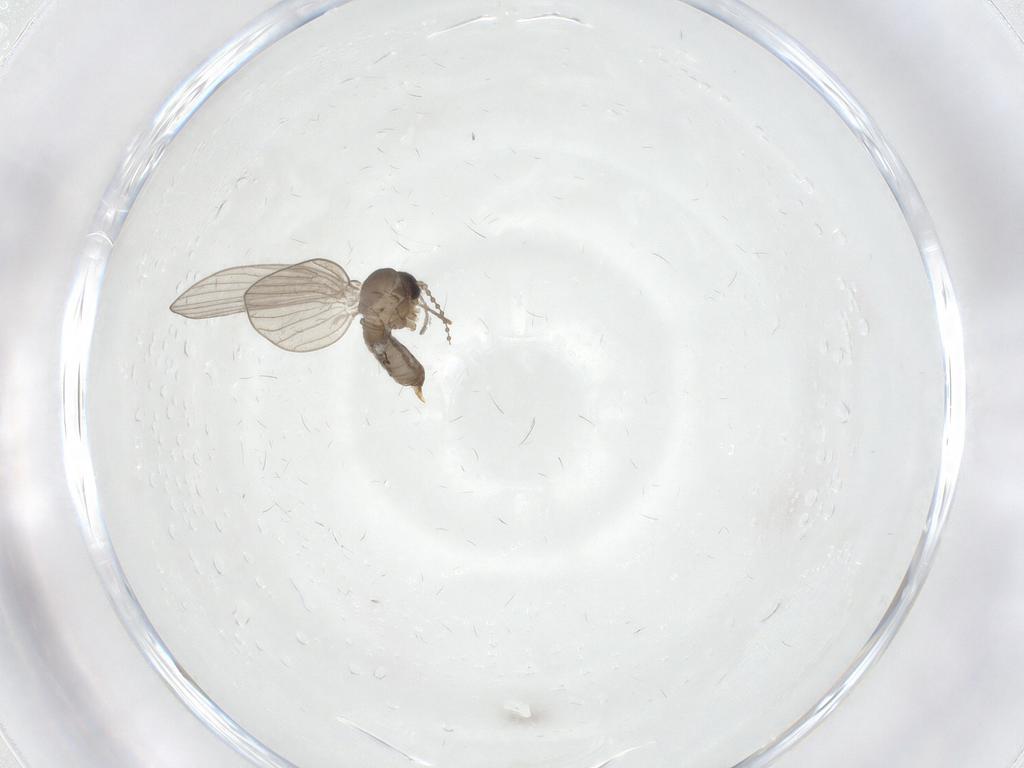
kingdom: Animalia
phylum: Arthropoda
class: Insecta
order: Diptera
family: Psychodidae
